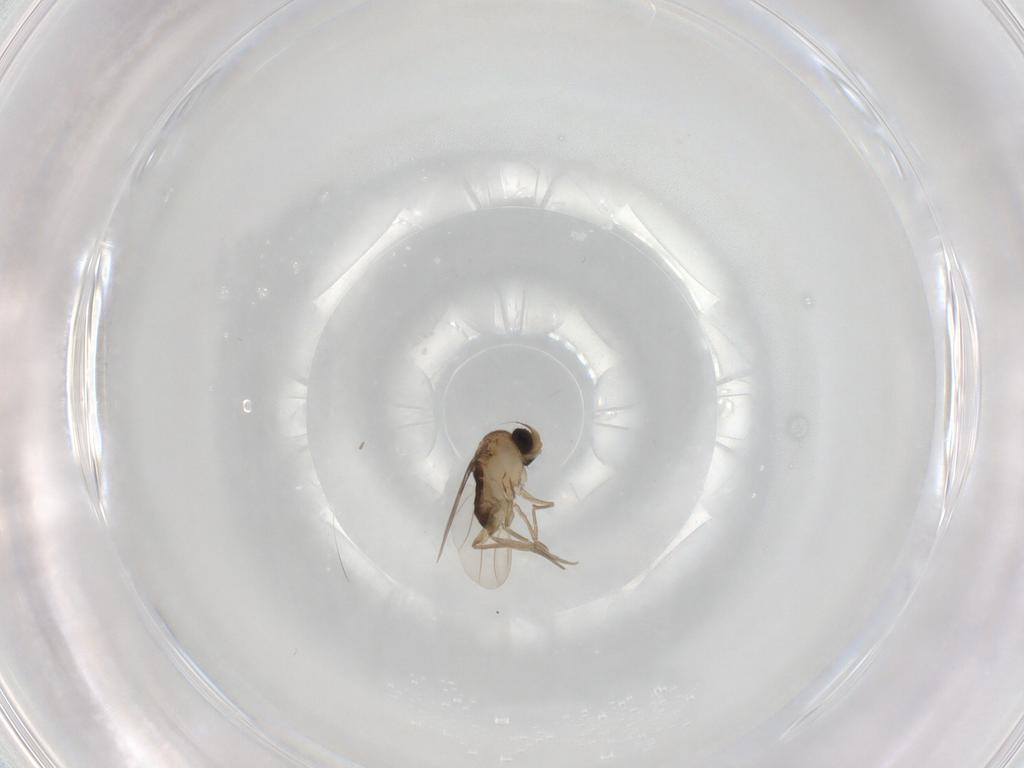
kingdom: Animalia
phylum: Arthropoda
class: Insecta
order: Diptera
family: Phoridae
